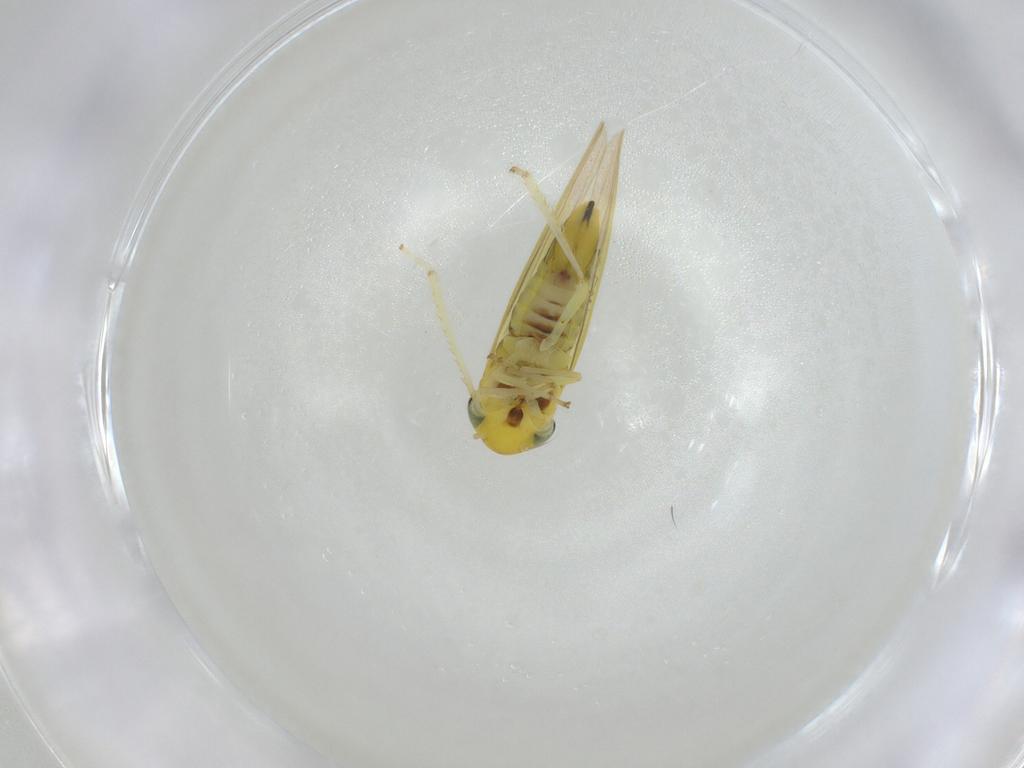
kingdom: Animalia
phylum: Arthropoda
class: Insecta
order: Hemiptera
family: Cicadellidae
